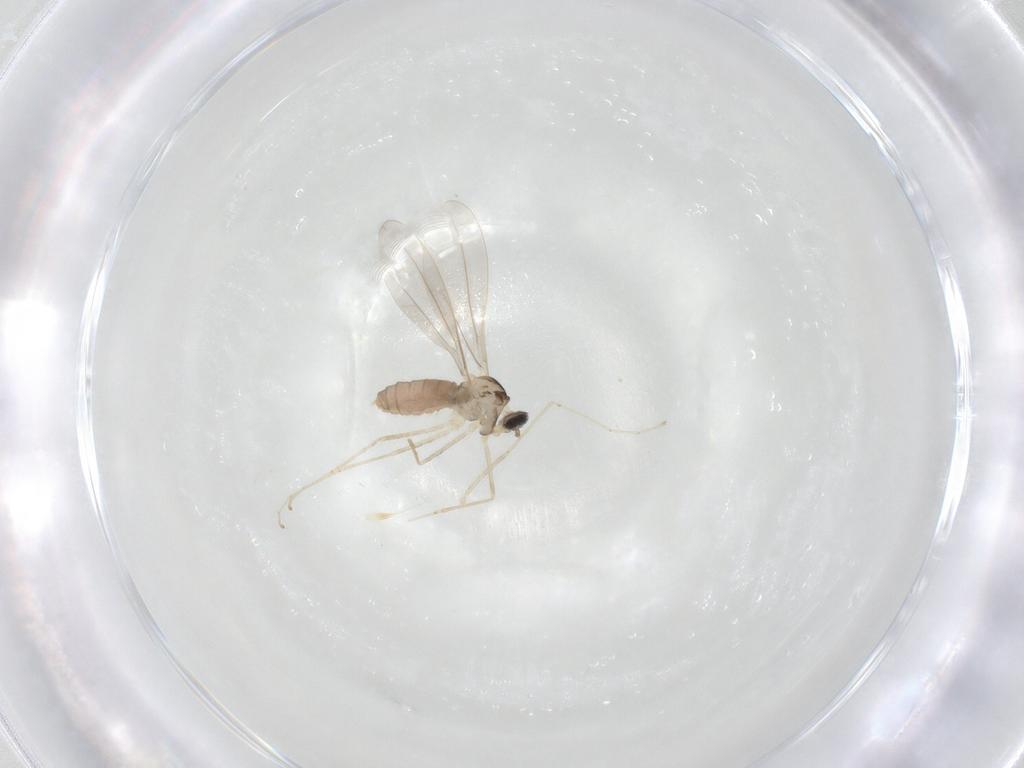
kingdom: Animalia
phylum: Arthropoda
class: Insecta
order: Diptera
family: Cecidomyiidae
